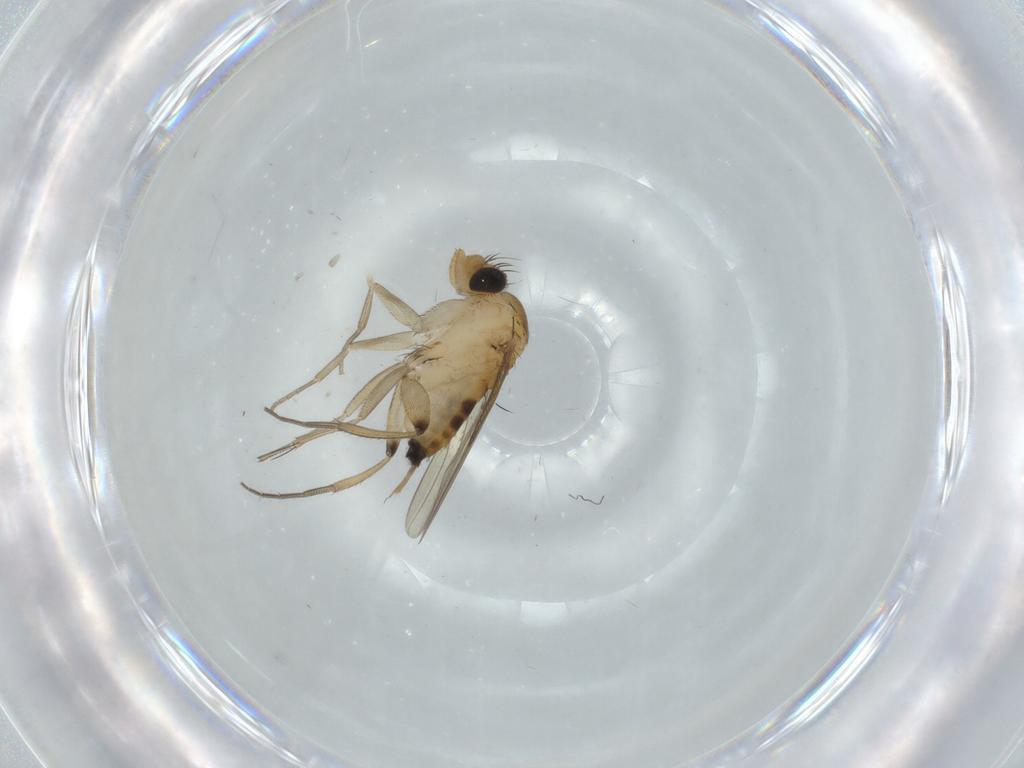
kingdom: Animalia
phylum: Arthropoda
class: Insecta
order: Diptera
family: Phoridae
